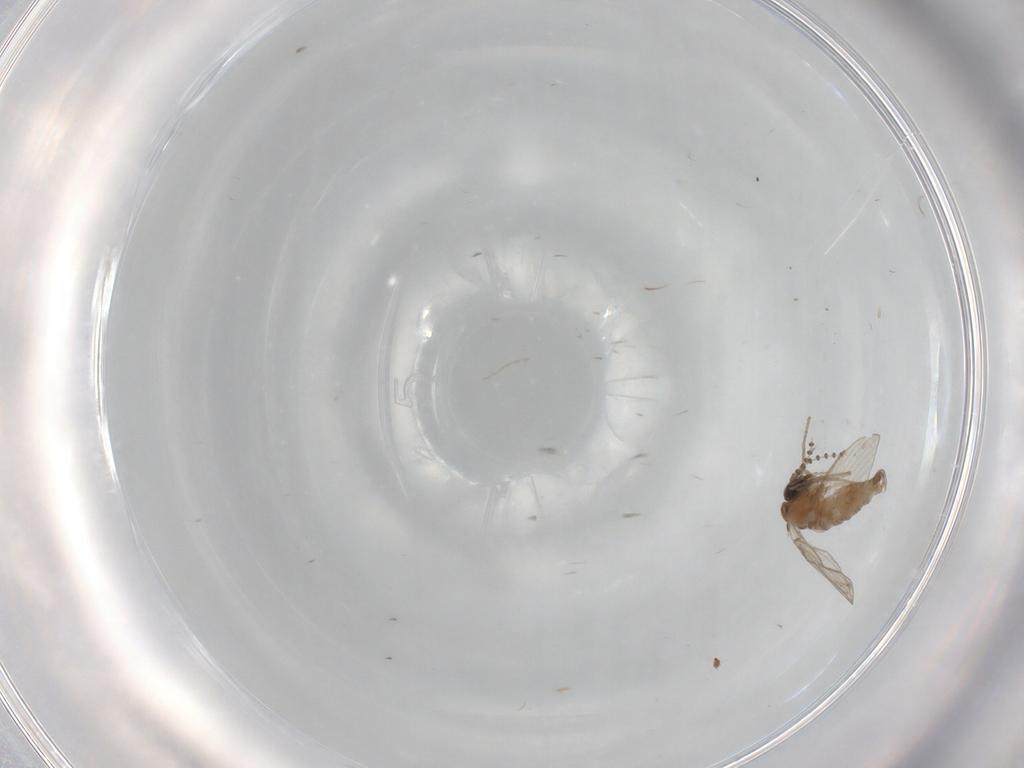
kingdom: Animalia
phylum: Arthropoda
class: Insecta
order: Diptera
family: Psychodidae
